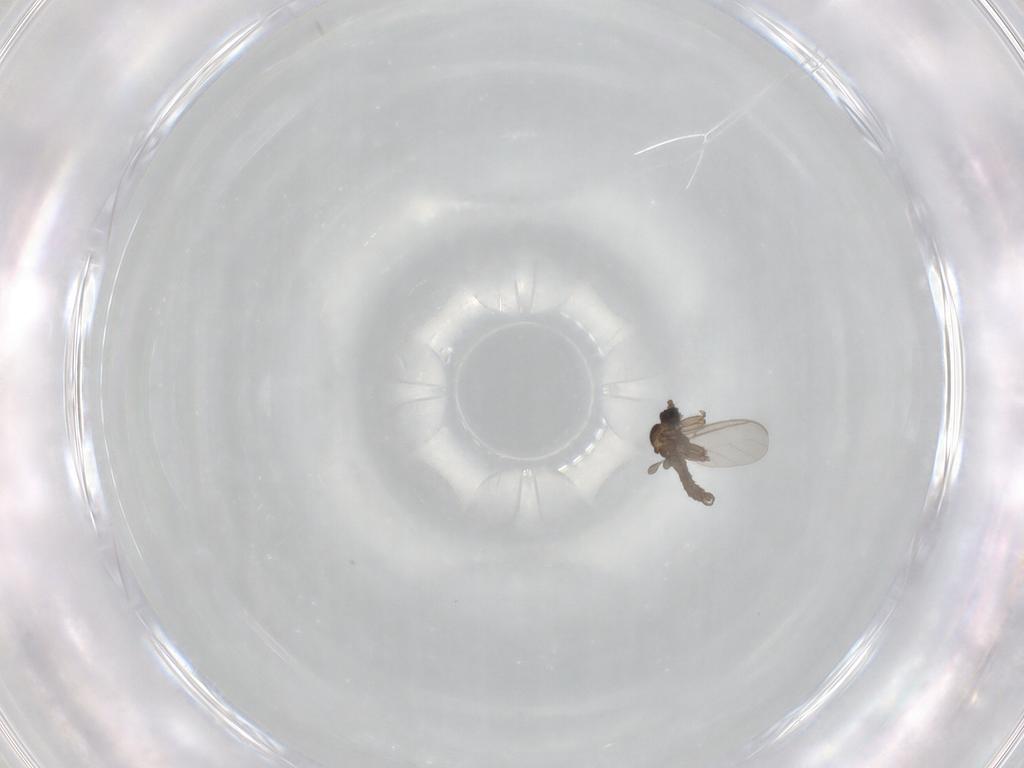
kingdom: Animalia
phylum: Arthropoda
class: Insecta
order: Diptera
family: Sciaridae
